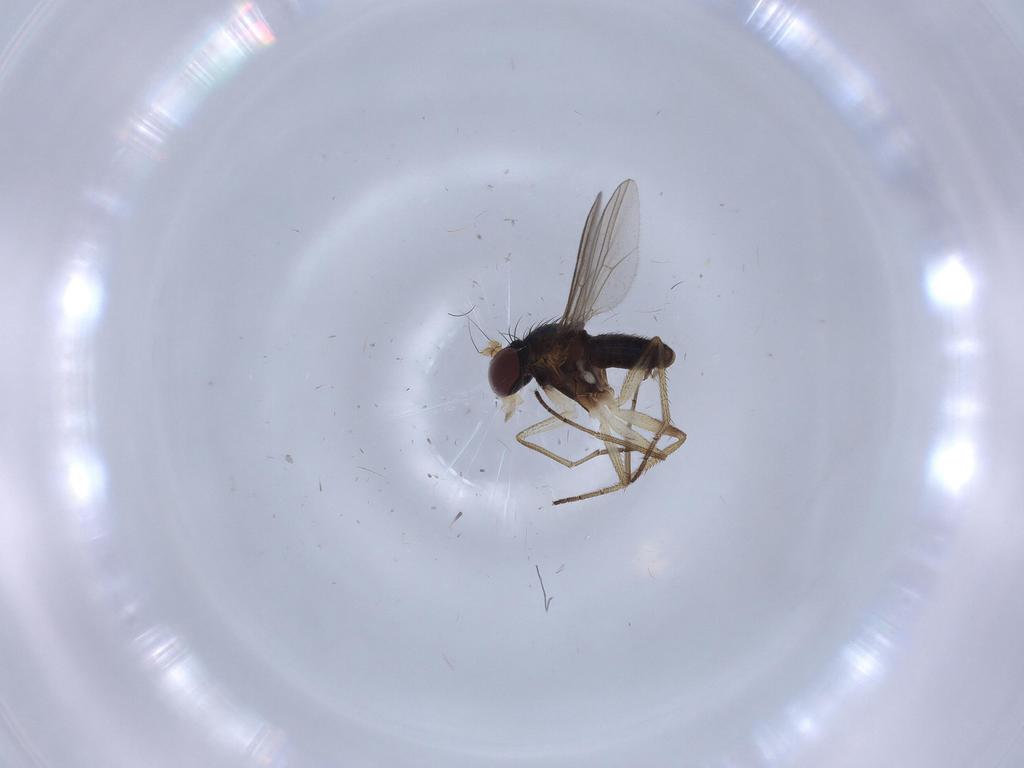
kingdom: Animalia
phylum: Arthropoda
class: Insecta
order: Diptera
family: Dolichopodidae
